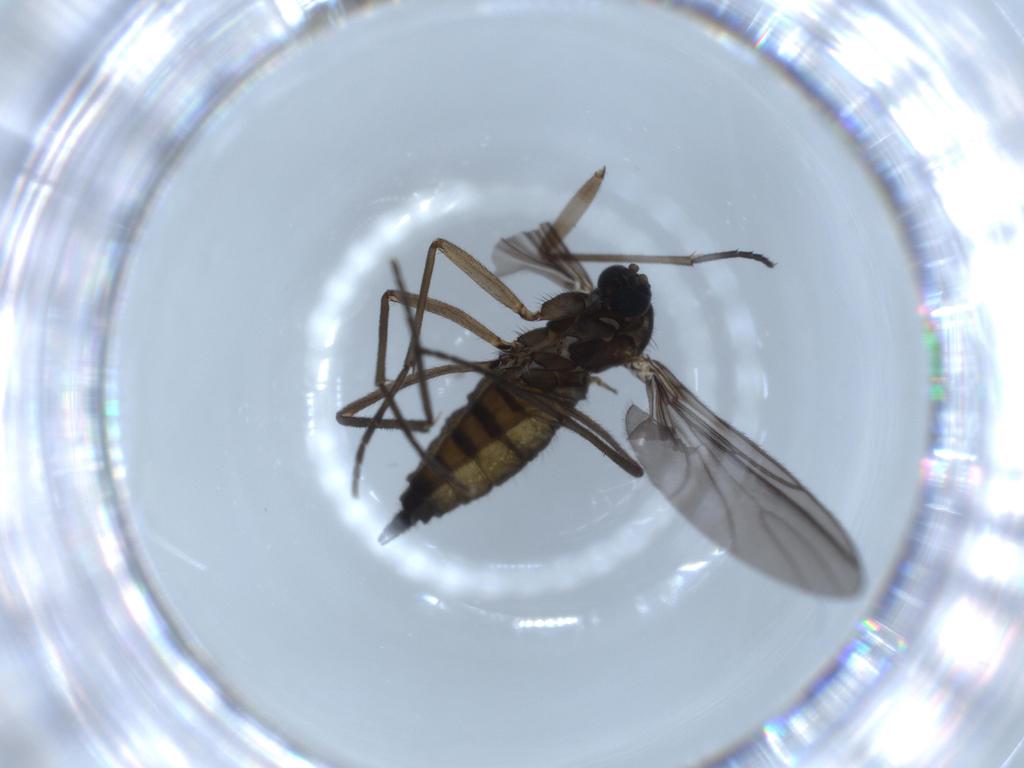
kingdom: Animalia
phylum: Arthropoda
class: Insecta
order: Diptera
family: Sciaridae
